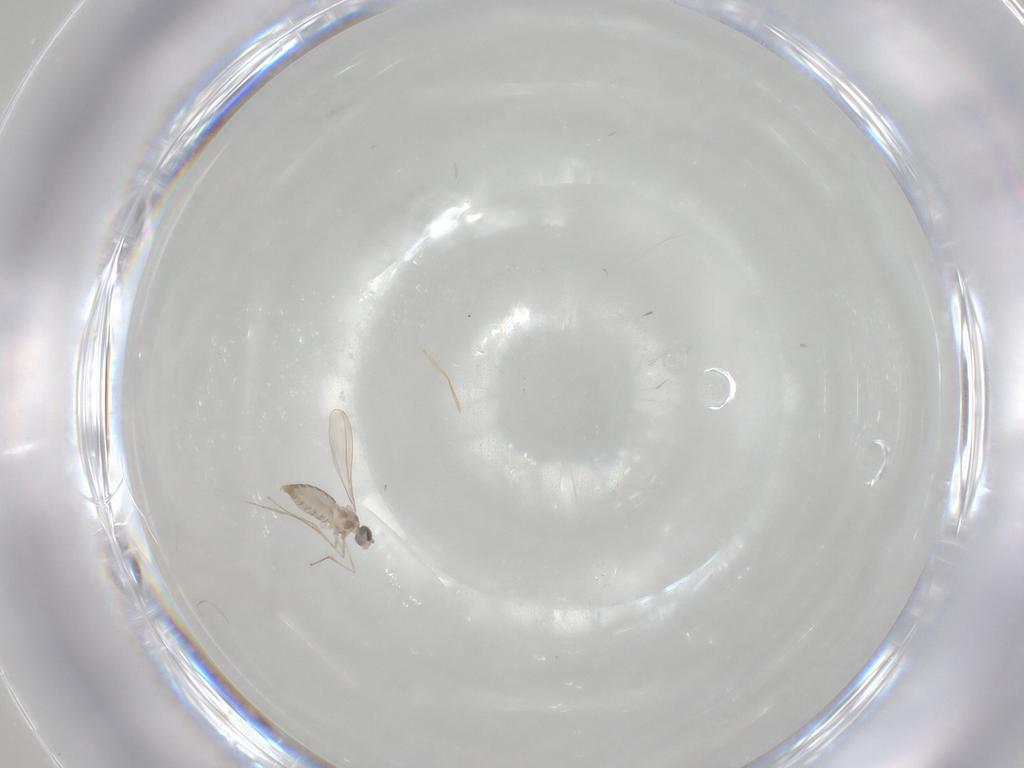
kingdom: Animalia
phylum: Arthropoda
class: Insecta
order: Diptera
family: Cecidomyiidae
